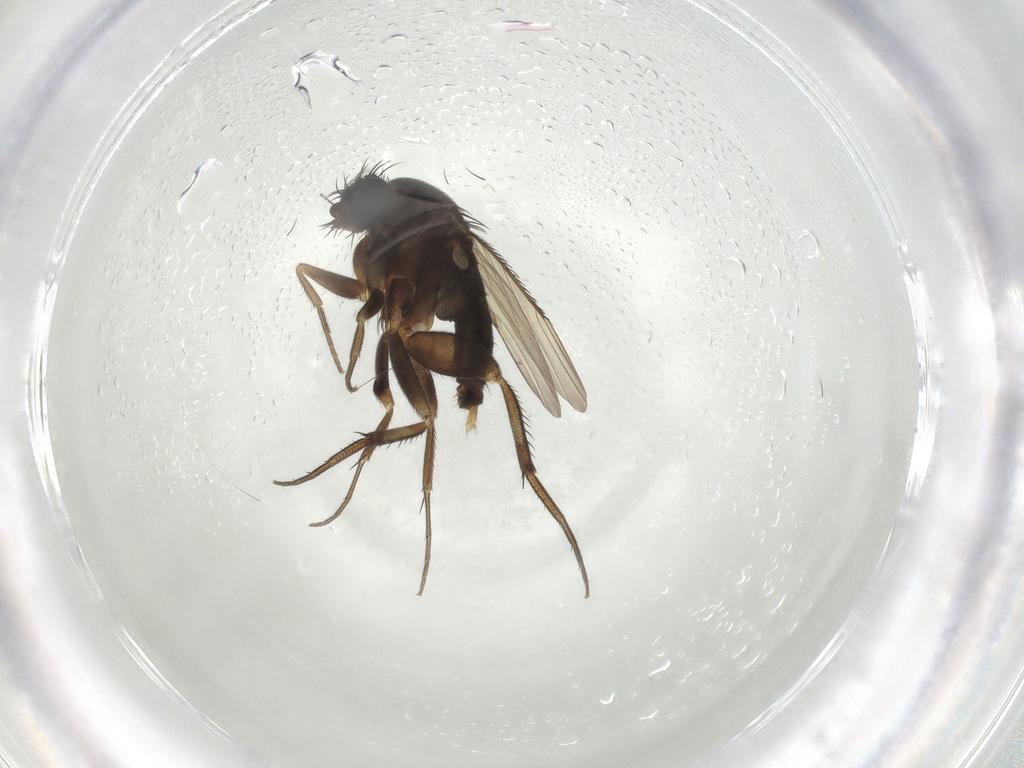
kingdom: Animalia
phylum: Arthropoda
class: Insecta
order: Diptera
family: Phoridae
